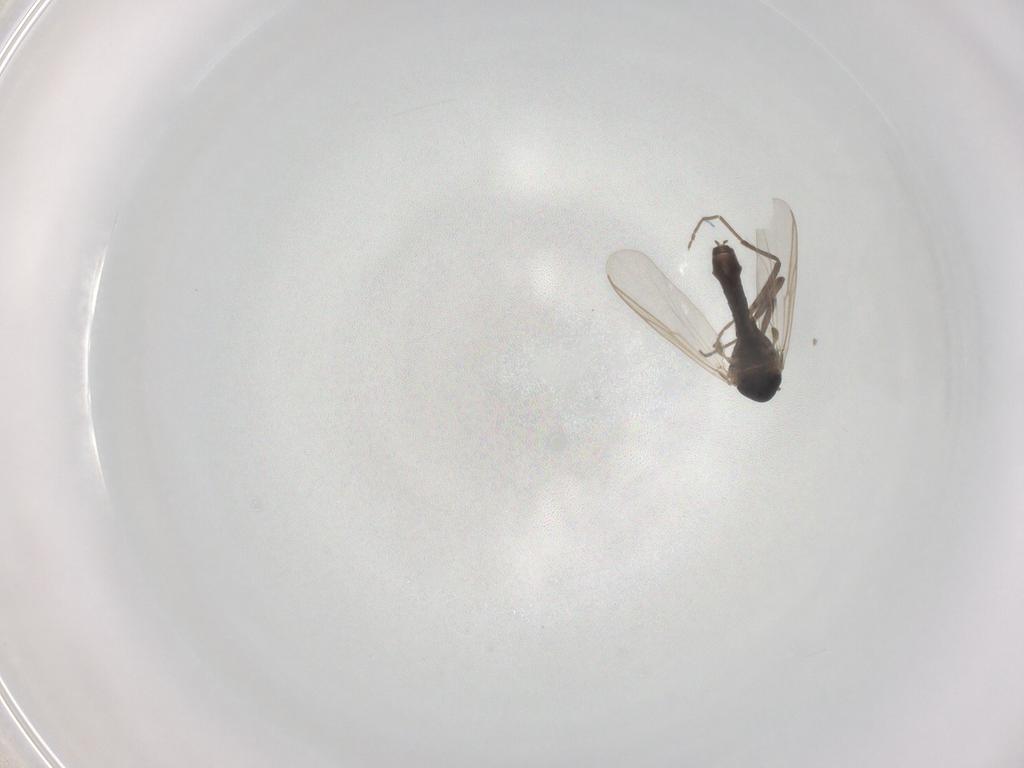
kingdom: Animalia
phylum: Arthropoda
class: Insecta
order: Diptera
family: Chironomidae
